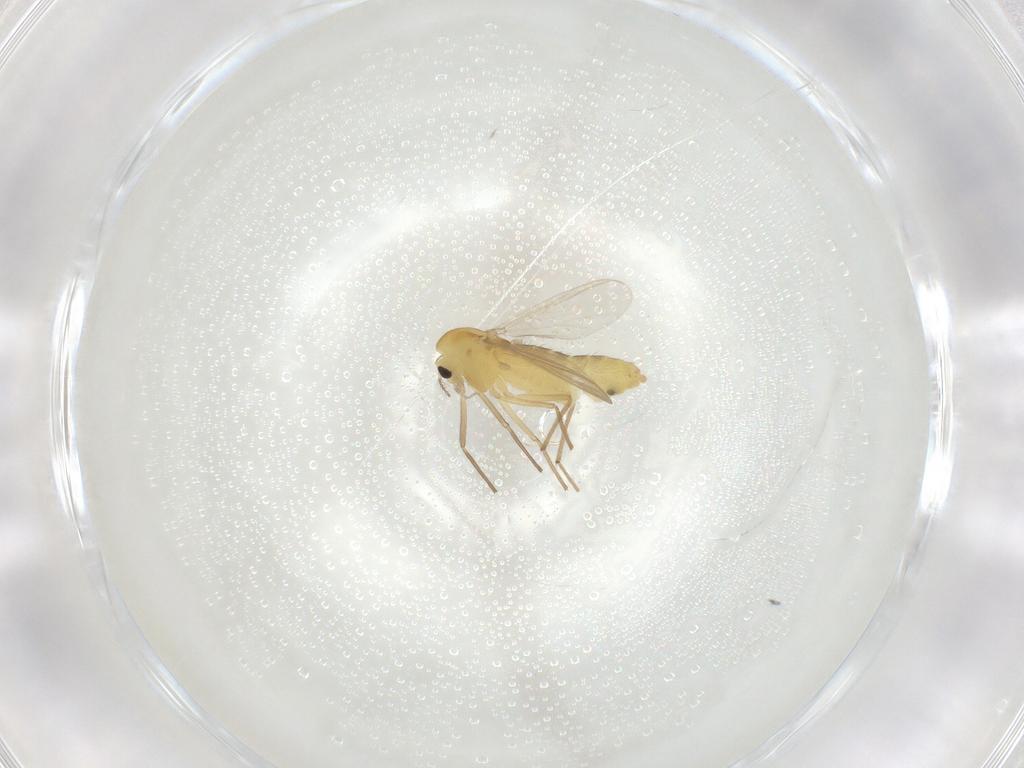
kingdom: Animalia
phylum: Arthropoda
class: Insecta
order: Diptera
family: Chironomidae
